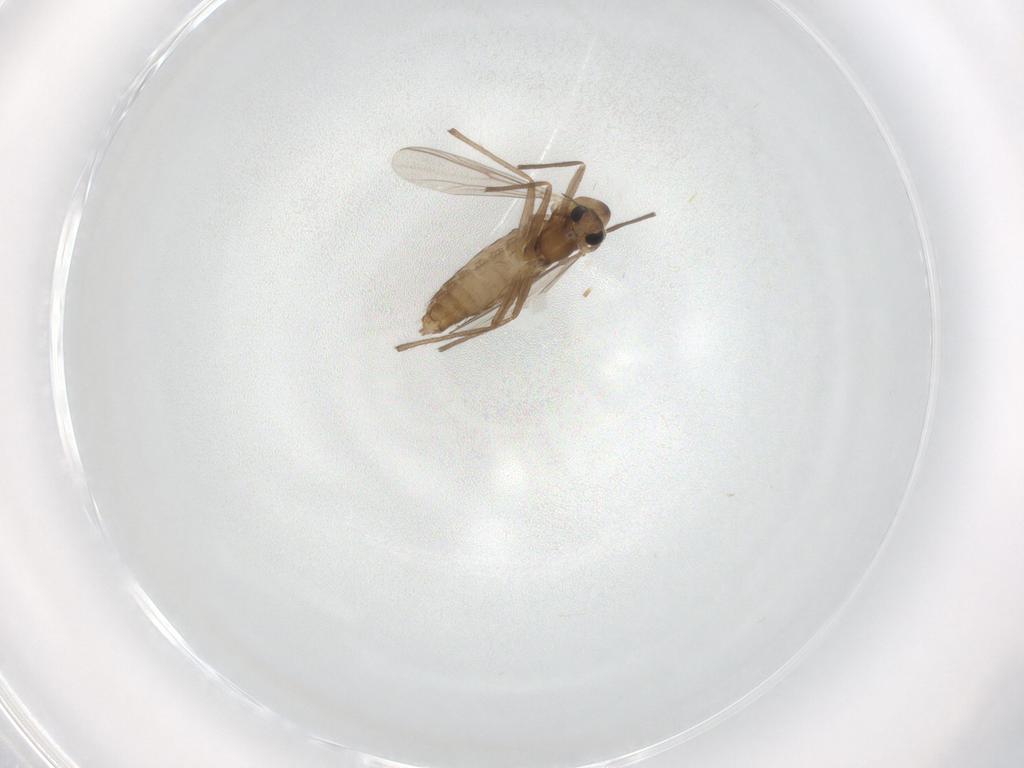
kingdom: Animalia
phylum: Arthropoda
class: Insecta
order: Diptera
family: Chironomidae
